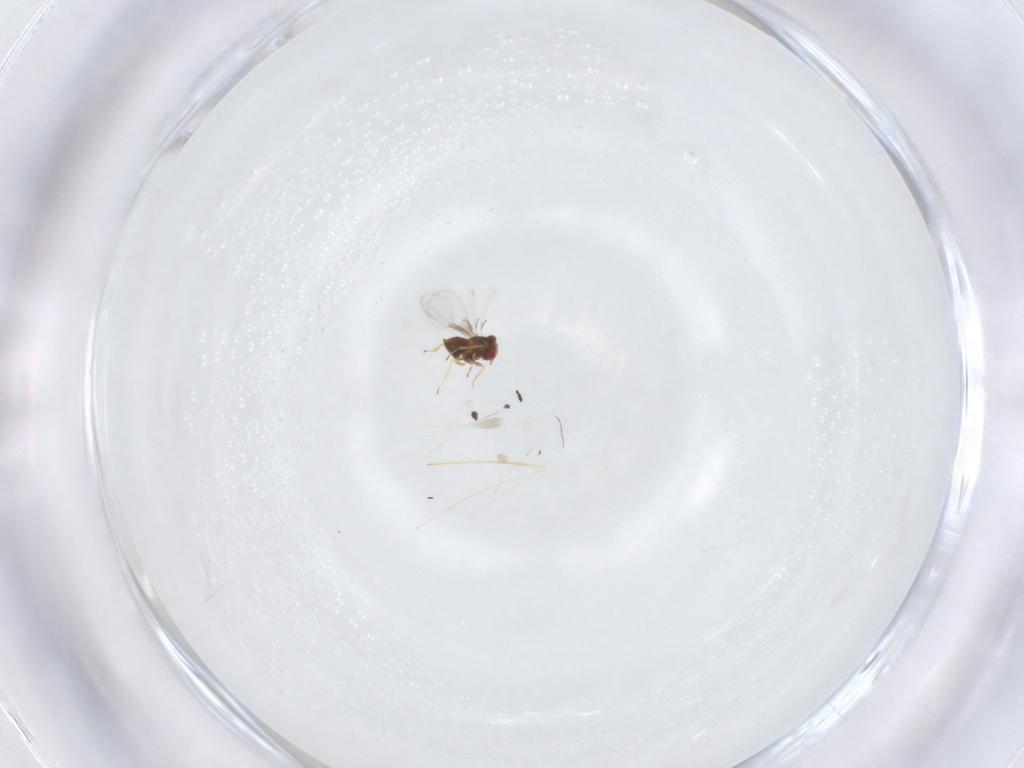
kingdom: Animalia
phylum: Arthropoda
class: Insecta
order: Hymenoptera
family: Trichogrammatidae
